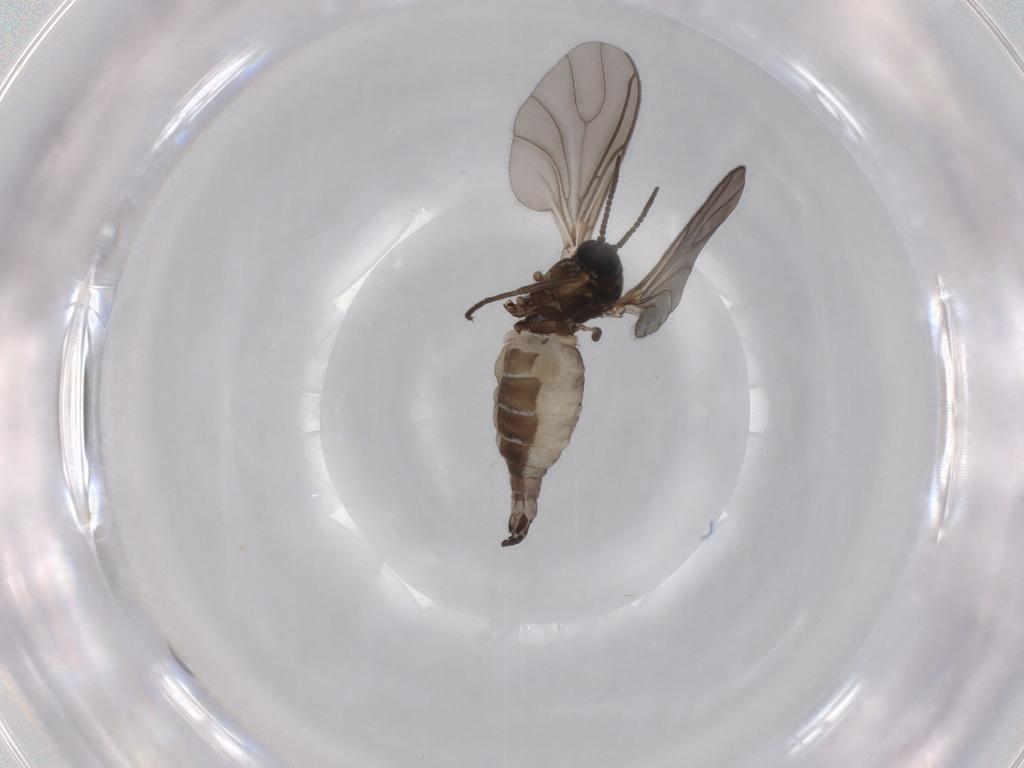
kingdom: Animalia
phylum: Arthropoda
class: Insecta
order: Diptera
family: Sciaridae
